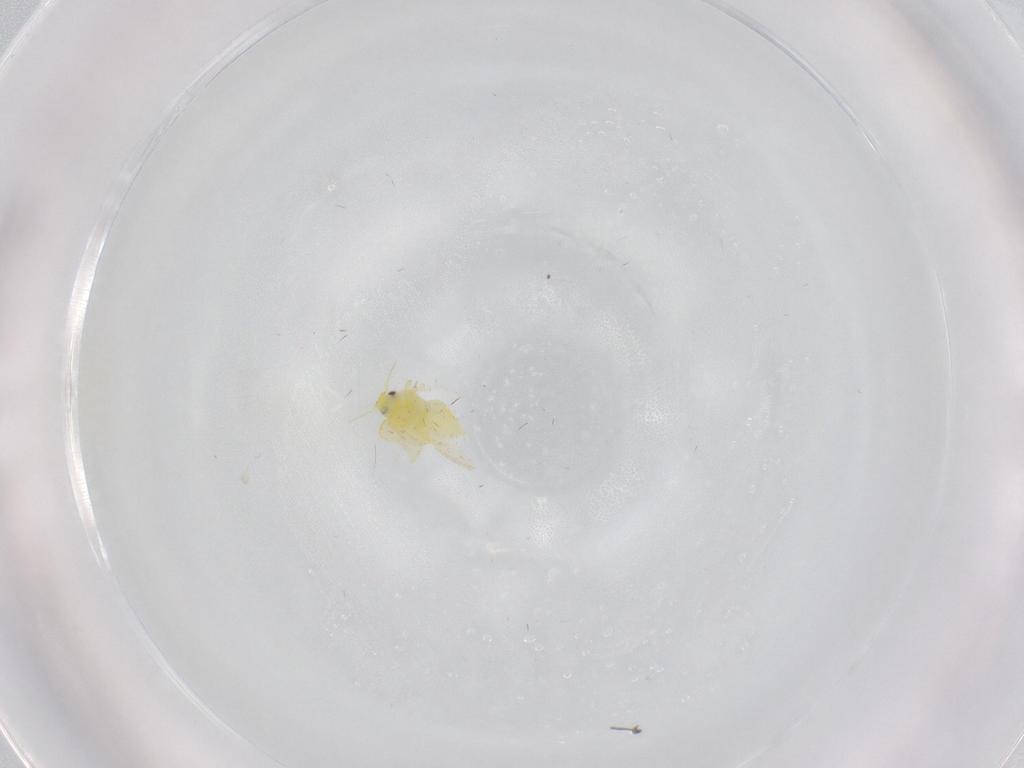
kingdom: Animalia
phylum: Arthropoda
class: Insecta
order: Hemiptera
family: Aleyrodidae
